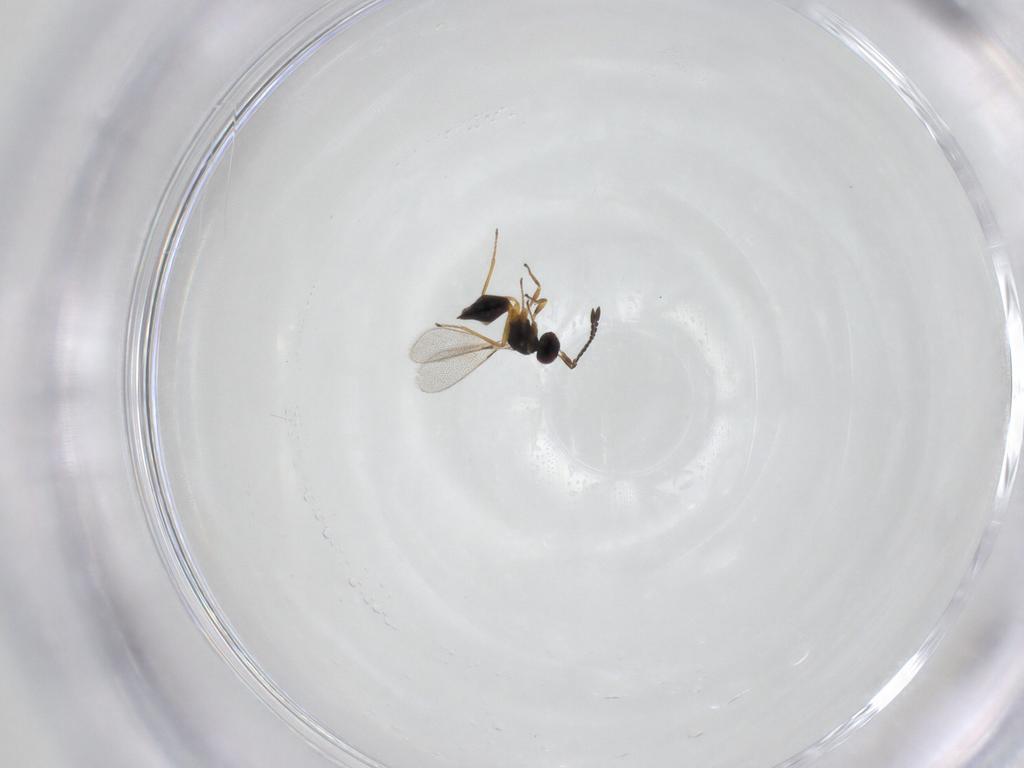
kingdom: Animalia
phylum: Arthropoda
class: Insecta
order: Hymenoptera
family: Mymaridae
